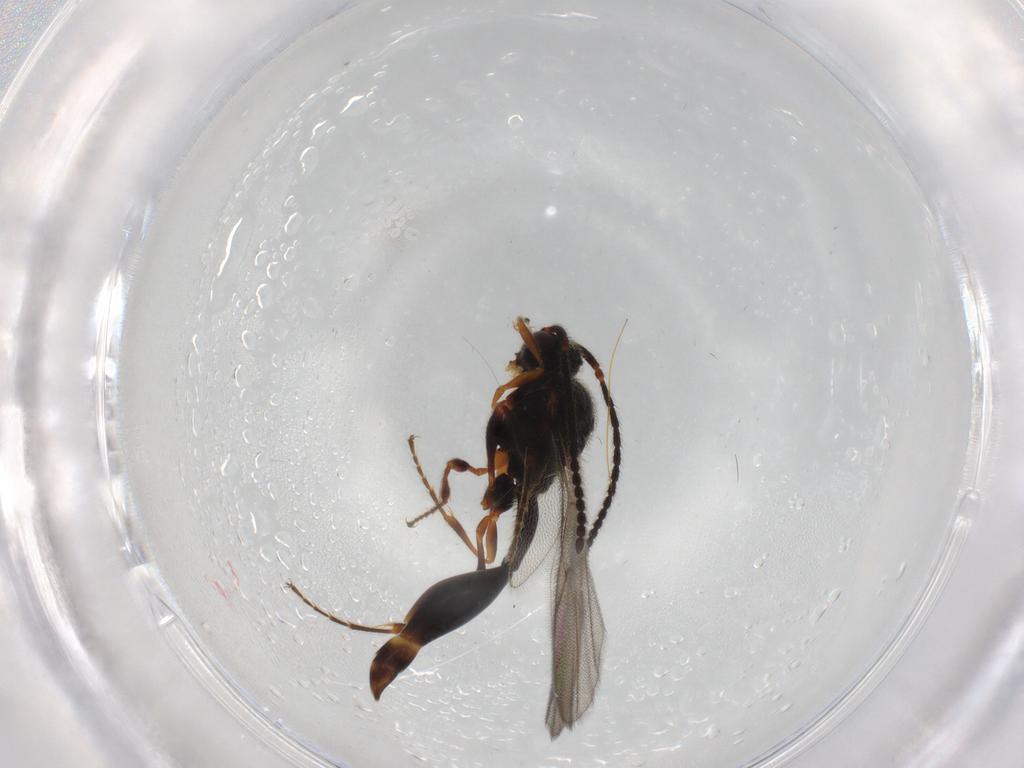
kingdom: Animalia
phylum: Arthropoda
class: Insecta
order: Hymenoptera
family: Diapriidae
